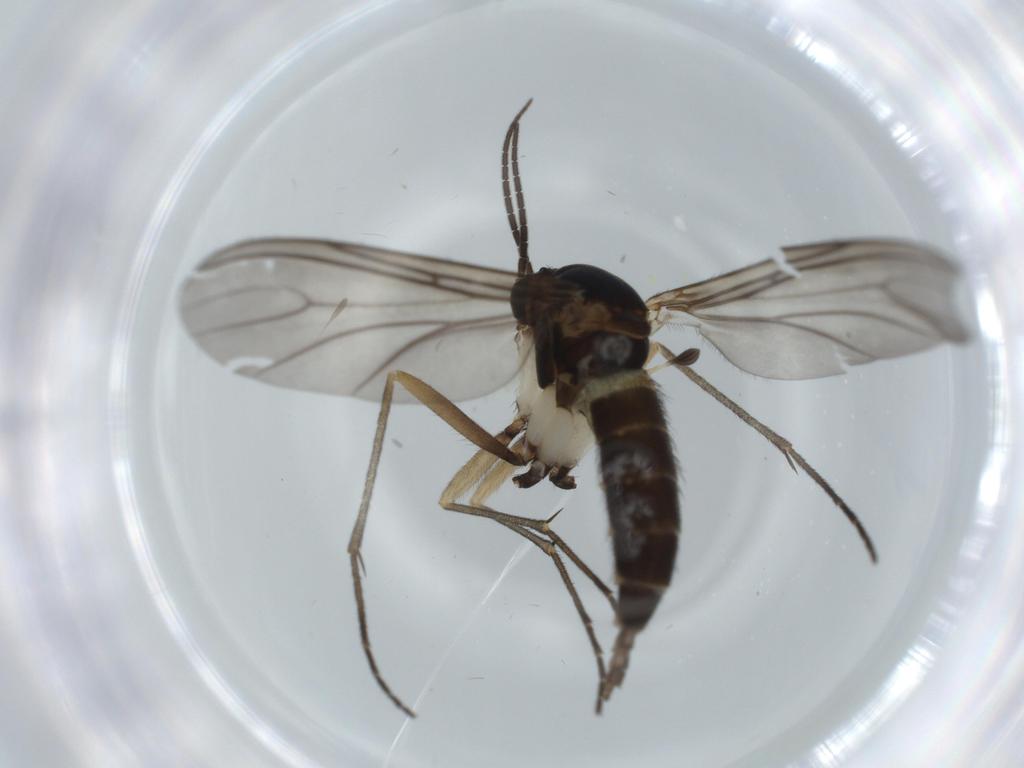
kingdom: Animalia
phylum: Arthropoda
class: Insecta
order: Diptera
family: Sciaridae
